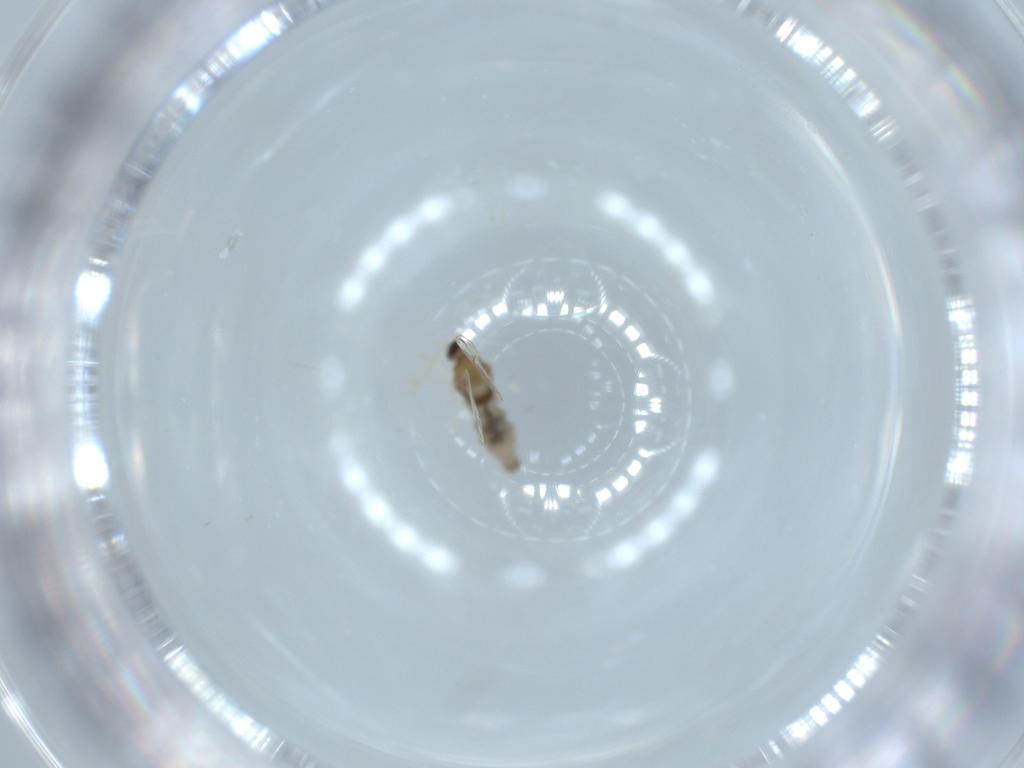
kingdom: Animalia
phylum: Arthropoda
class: Insecta
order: Diptera
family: Cecidomyiidae
